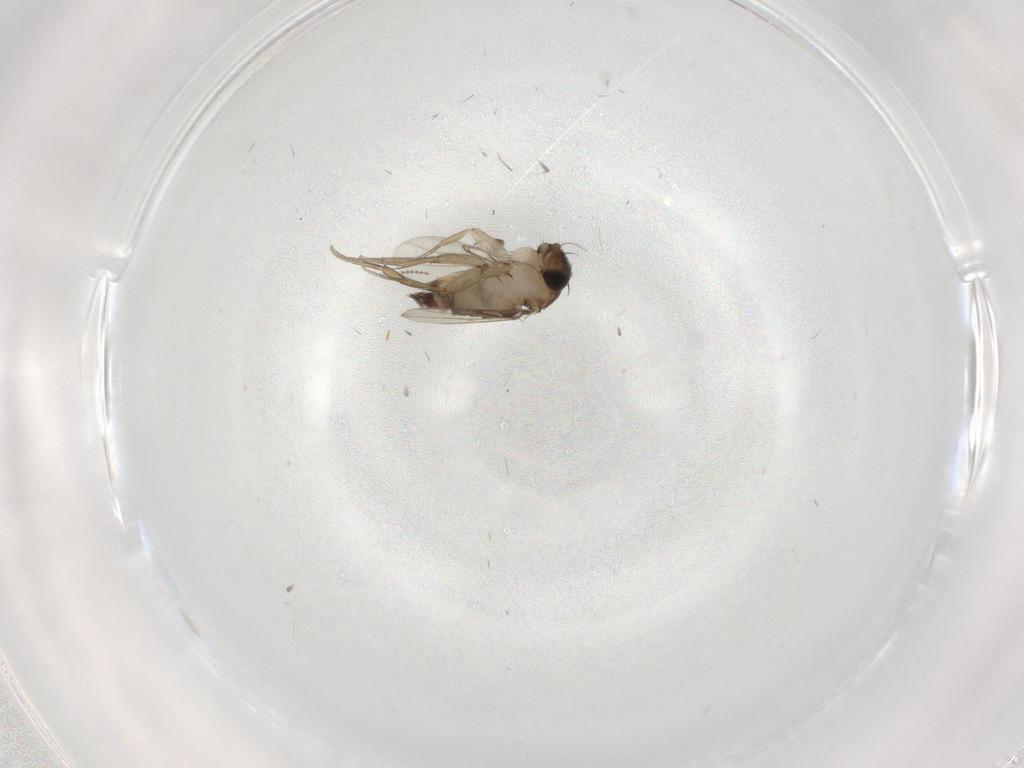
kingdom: Animalia
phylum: Arthropoda
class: Insecta
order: Diptera
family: Phoridae
